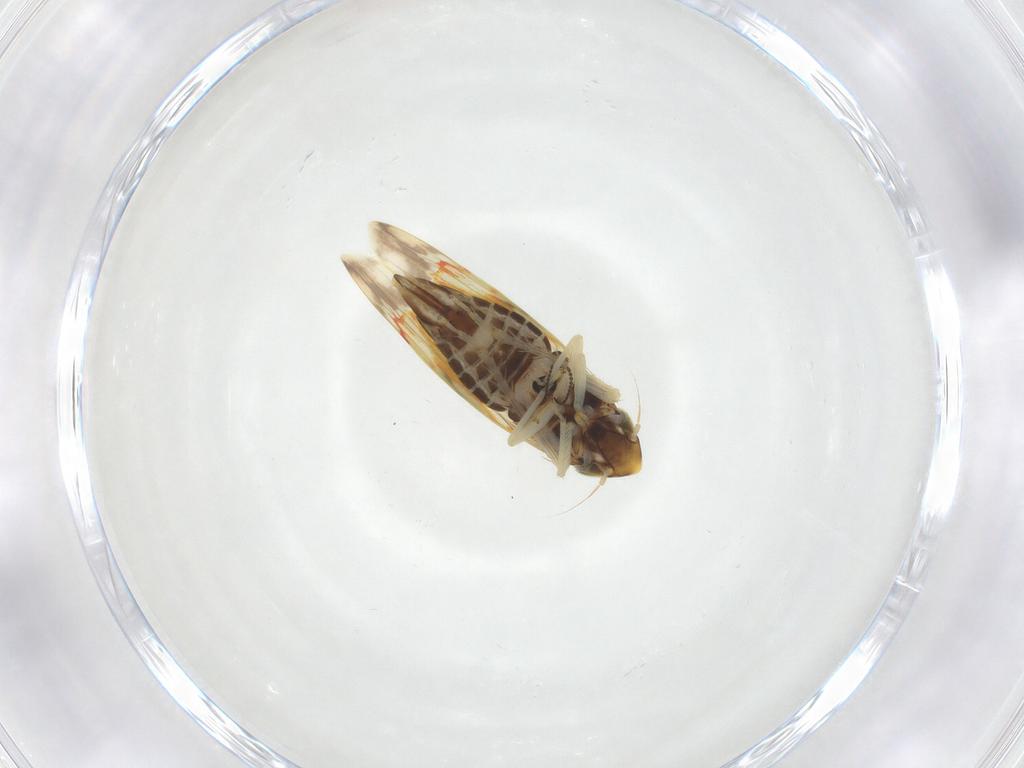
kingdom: Animalia
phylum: Arthropoda
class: Insecta
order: Hemiptera
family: Cicadellidae
